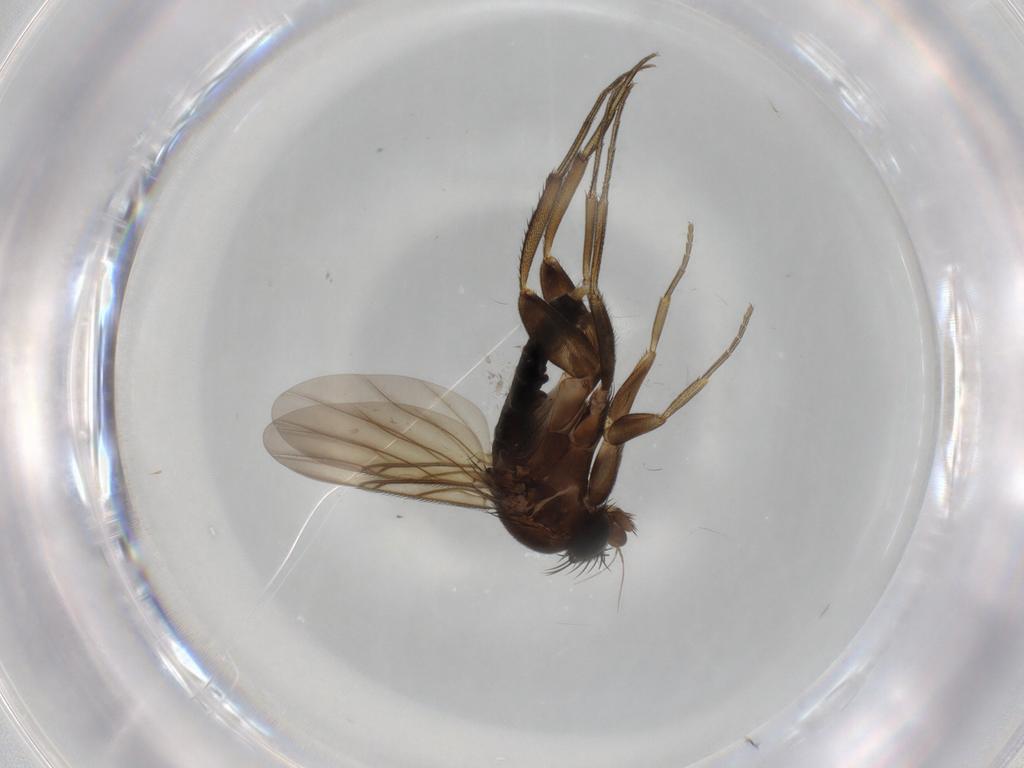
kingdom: Animalia
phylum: Arthropoda
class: Insecta
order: Diptera
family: Phoridae
